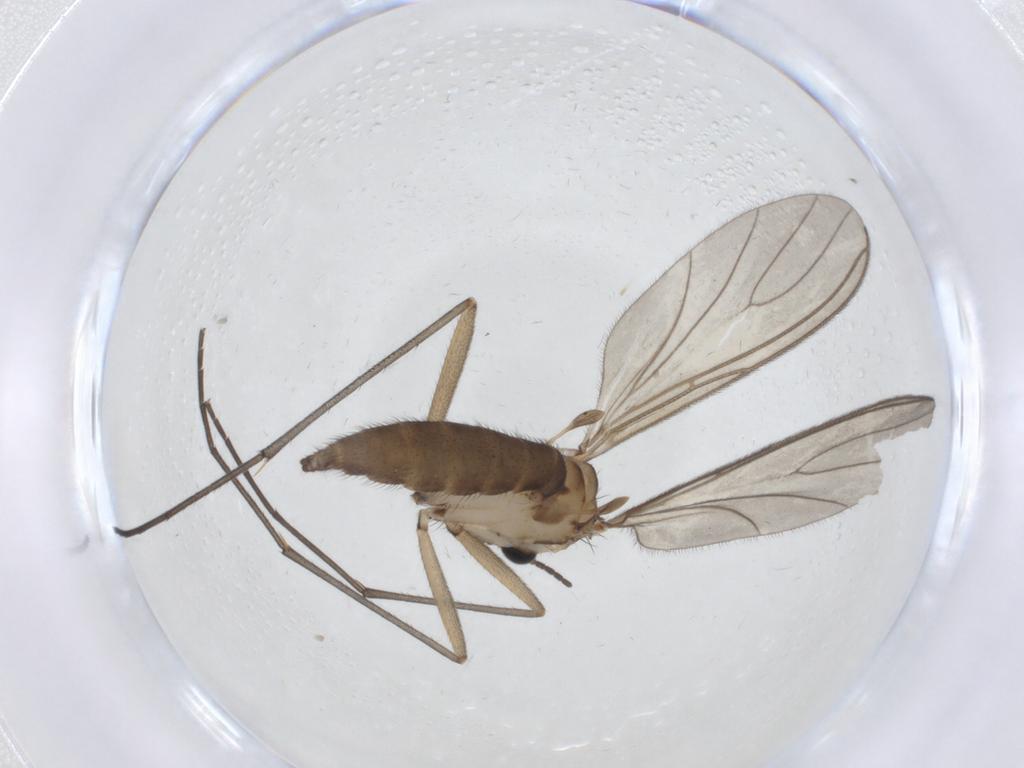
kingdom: Animalia
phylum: Arthropoda
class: Insecta
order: Diptera
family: Sciaridae
